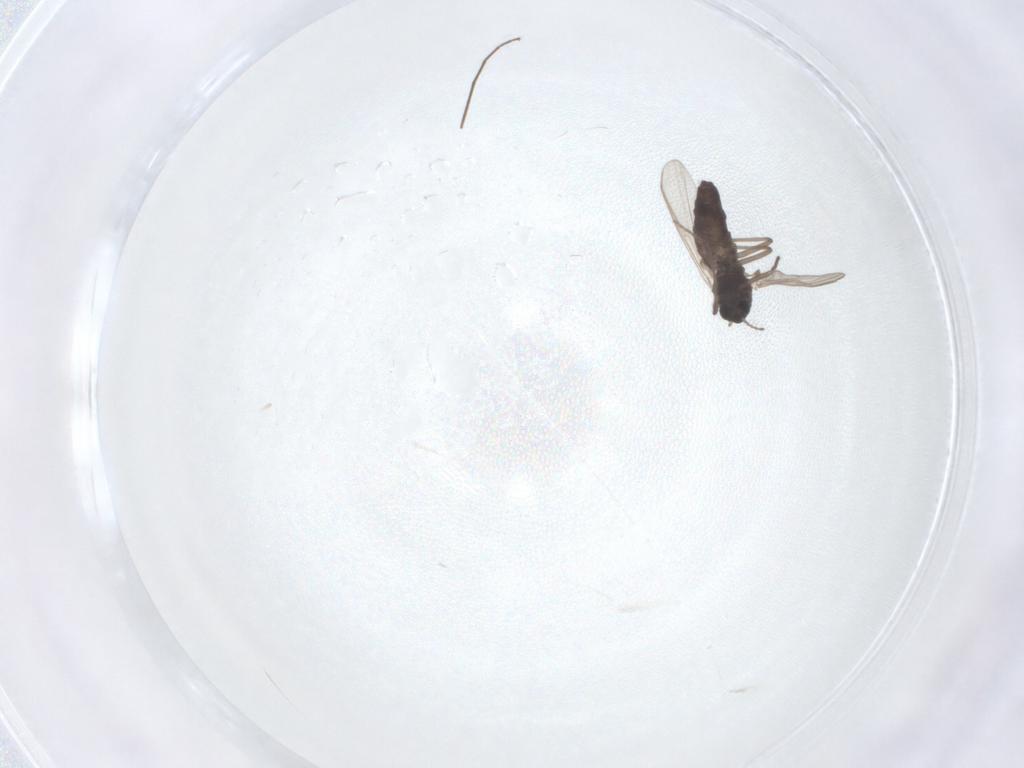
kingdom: Animalia
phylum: Arthropoda
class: Insecta
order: Diptera
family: Chironomidae
